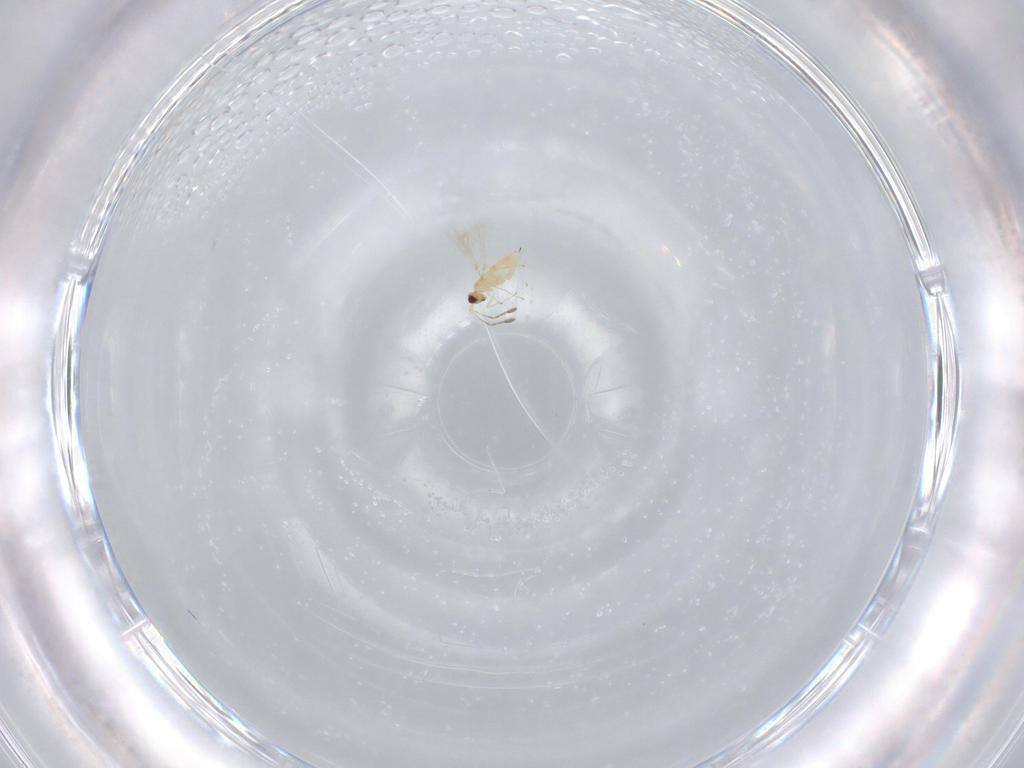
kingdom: Animalia
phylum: Arthropoda
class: Insecta
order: Hymenoptera
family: Mymaridae
